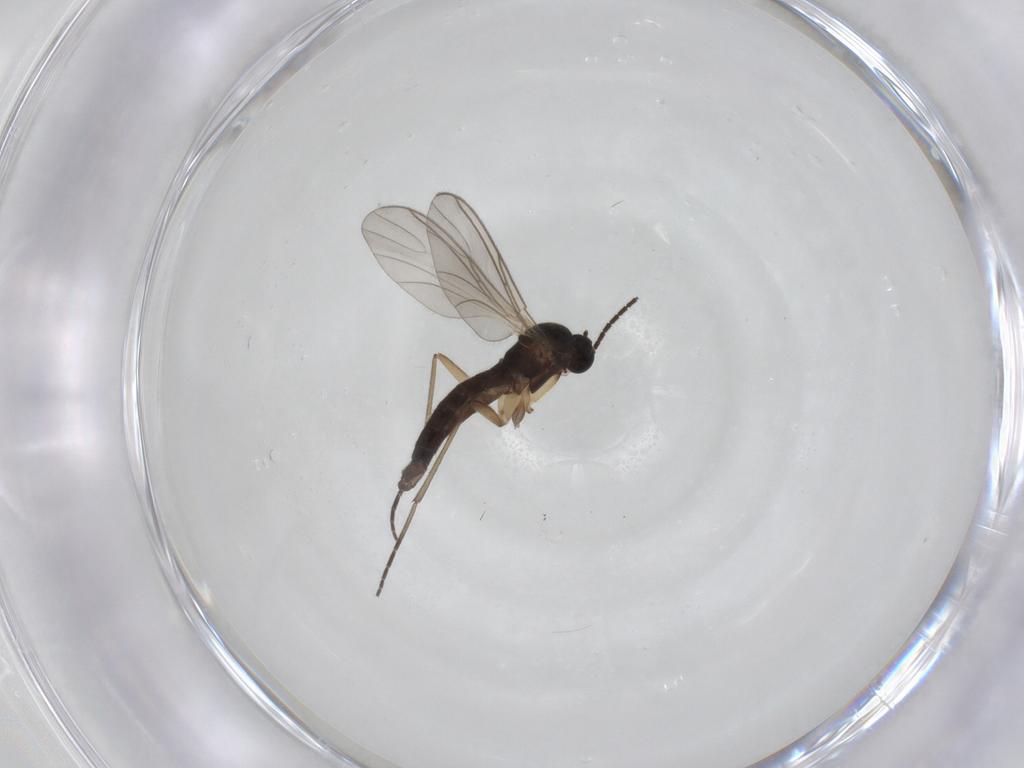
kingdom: Animalia
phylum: Arthropoda
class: Insecta
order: Diptera
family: Sciaridae
